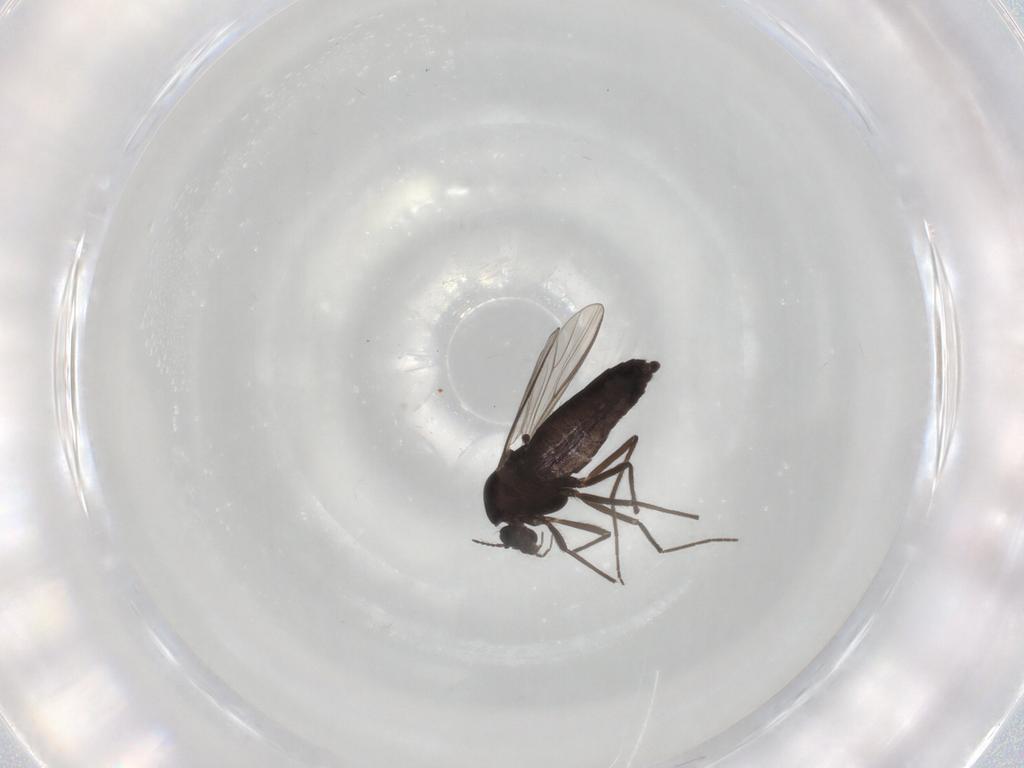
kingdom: Animalia
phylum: Arthropoda
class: Insecta
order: Diptera
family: Chironomidae
